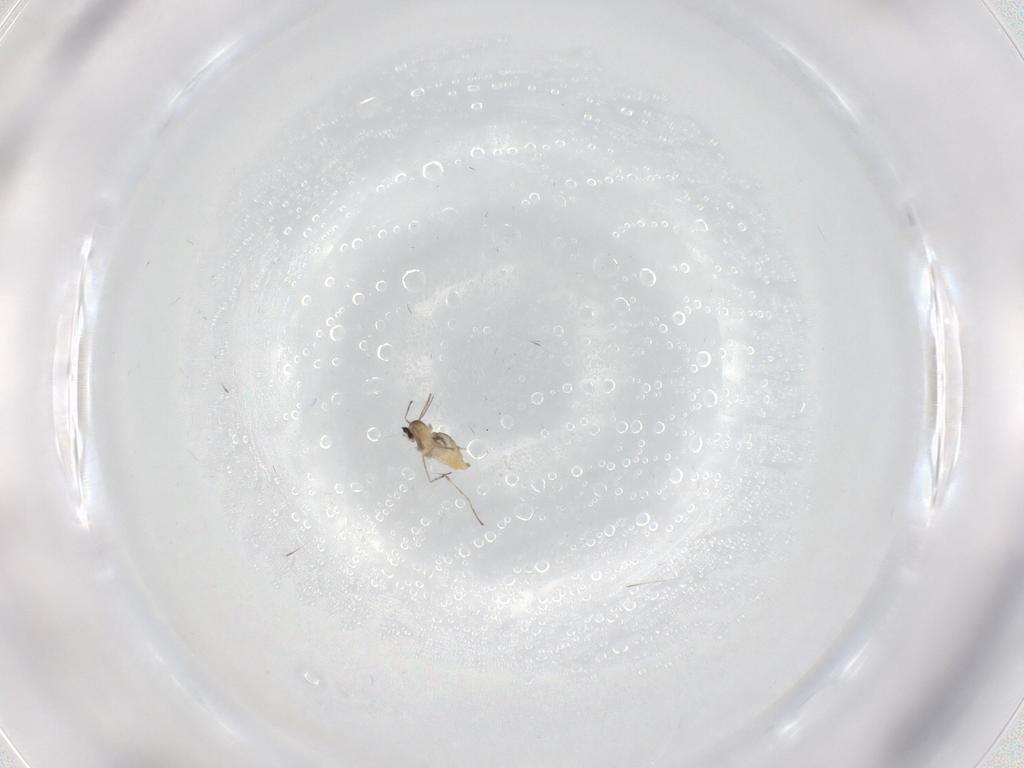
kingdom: Animalia
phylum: Arthropoda
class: Insecta
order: Diptera
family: Cecidomyiidae
